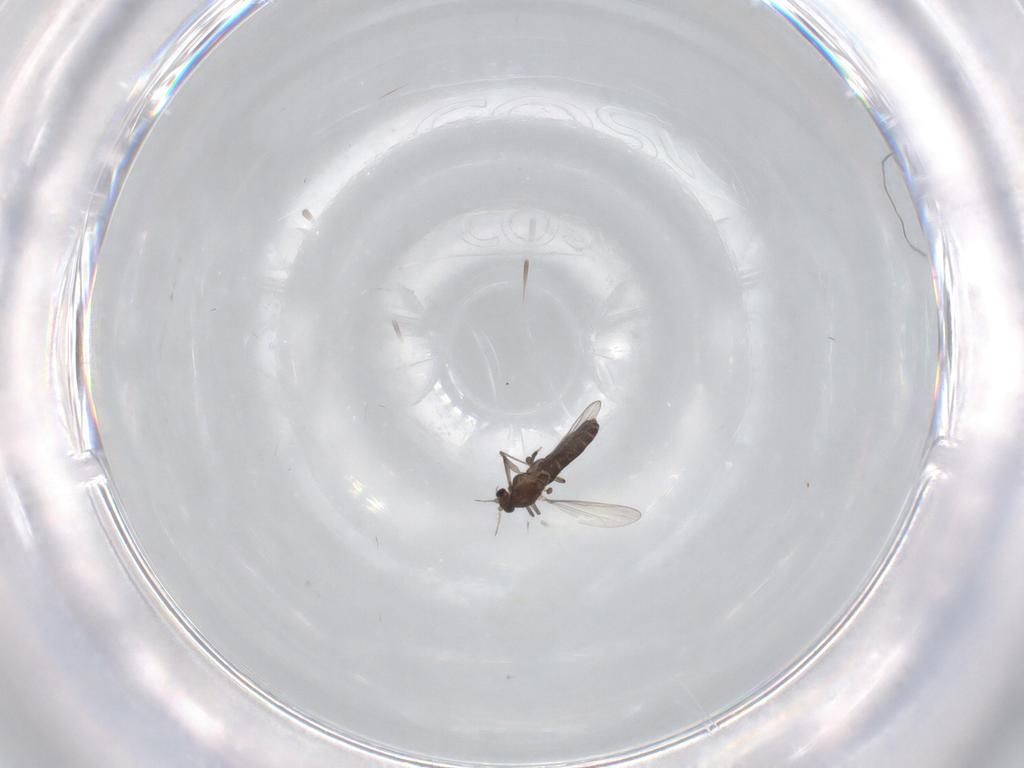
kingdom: Animalia
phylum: Arthropoda
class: Insecta
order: Diptera
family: Chironomidae
